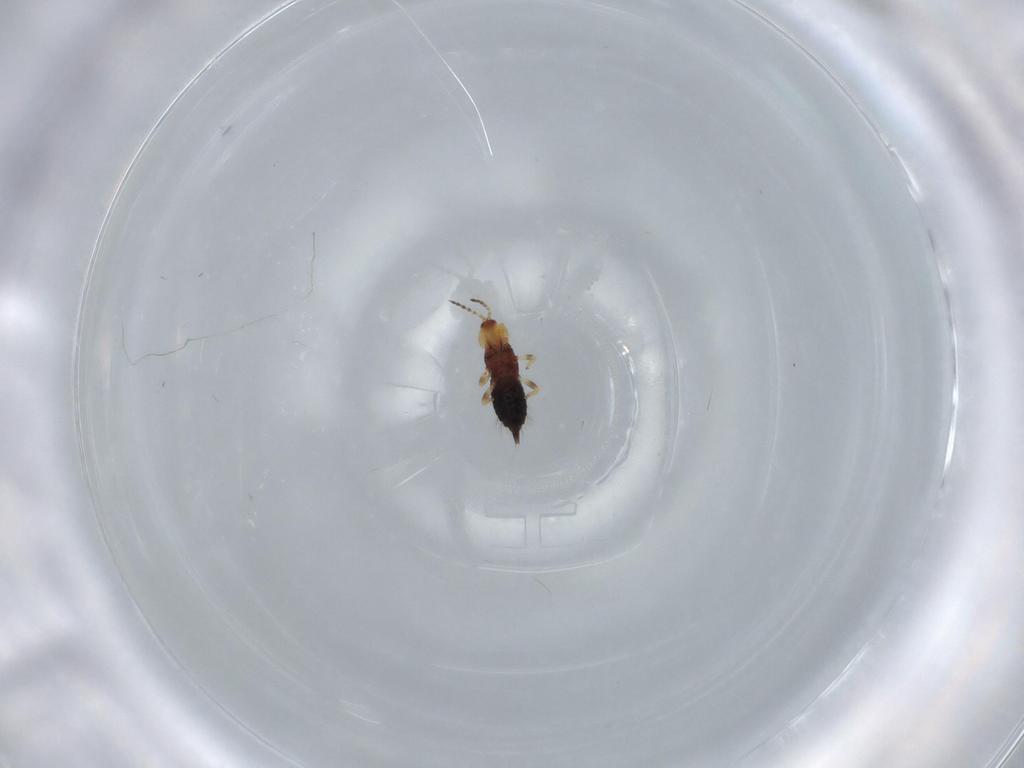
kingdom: Animalia
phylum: Arthropoda
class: Insecta
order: Thysanoptera
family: Phlaeothripidae
